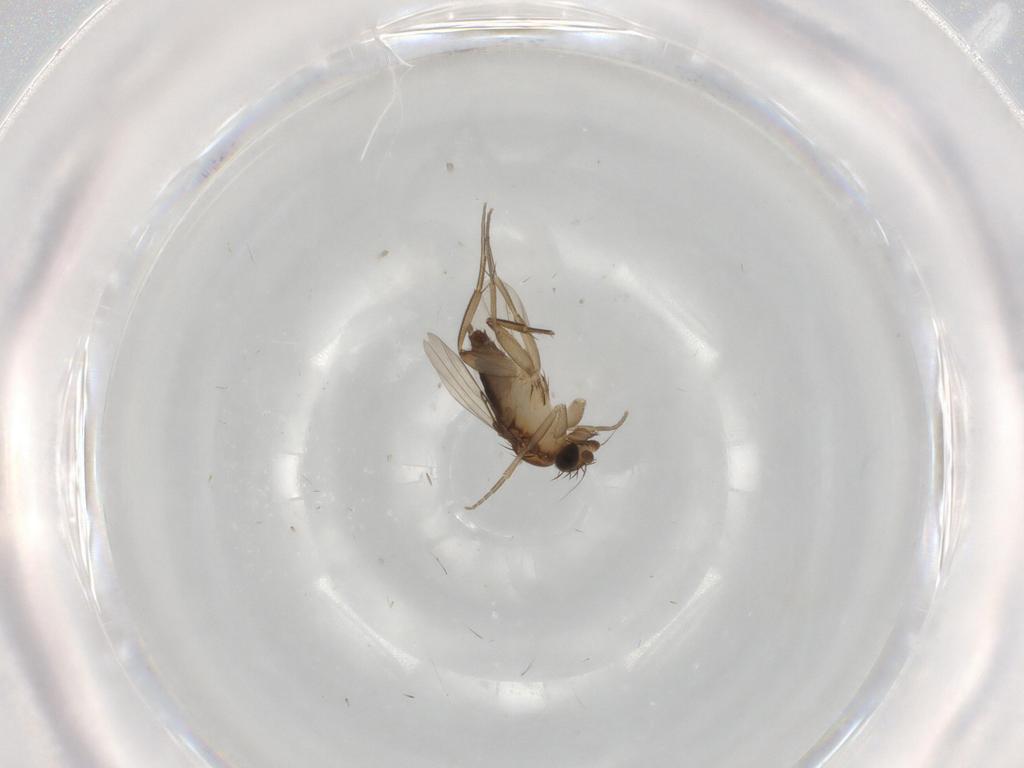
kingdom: Animalia
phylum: Arthropoda
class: Insecta
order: Diptera
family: Phoridae
